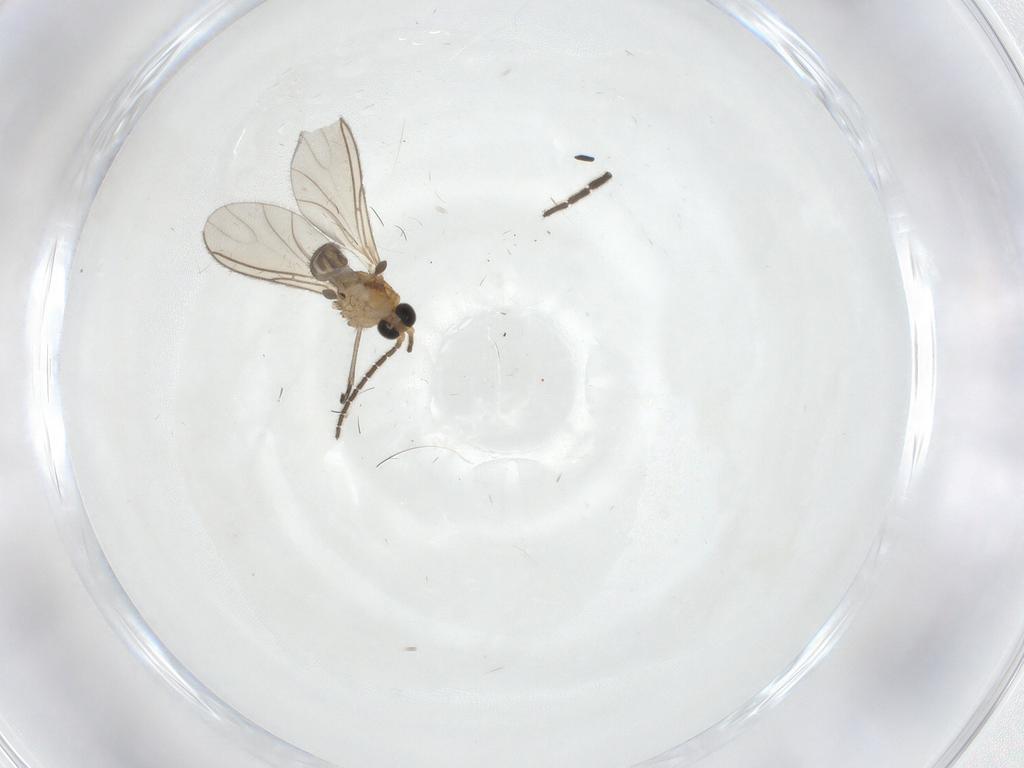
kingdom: Animalia
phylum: Arthropoda
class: Insecta
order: Diptera
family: Ceratopogonidae
